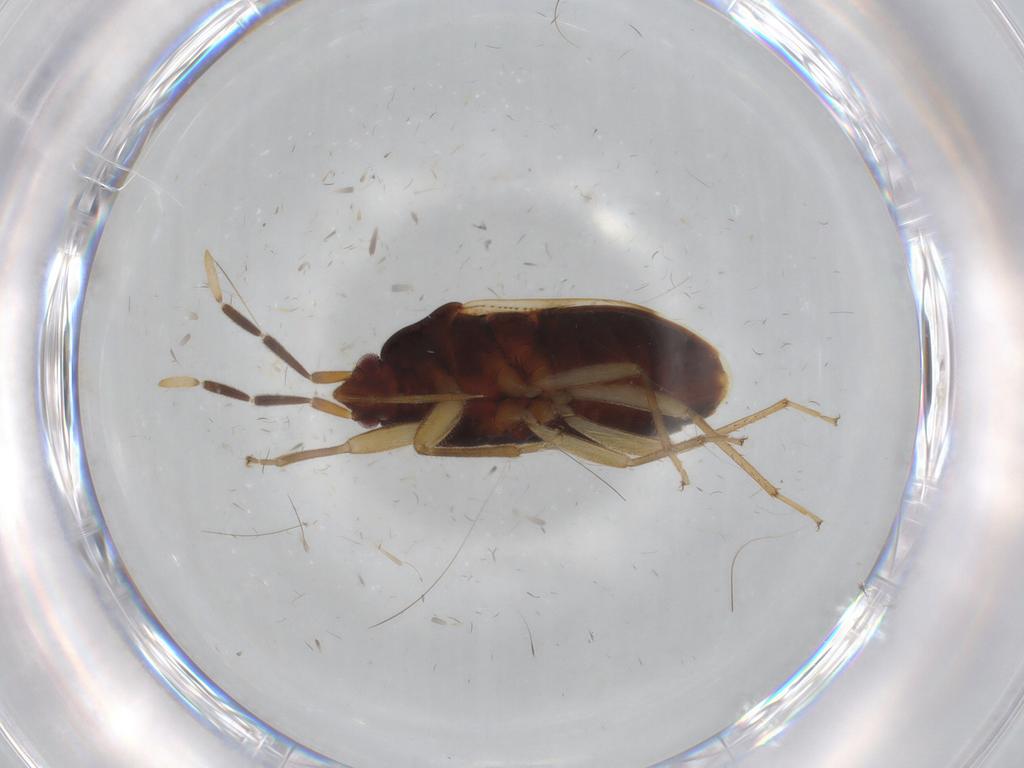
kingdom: Animalia
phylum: Arthropoda
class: Insecta
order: Hemiptera
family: Rhyparochromidae
